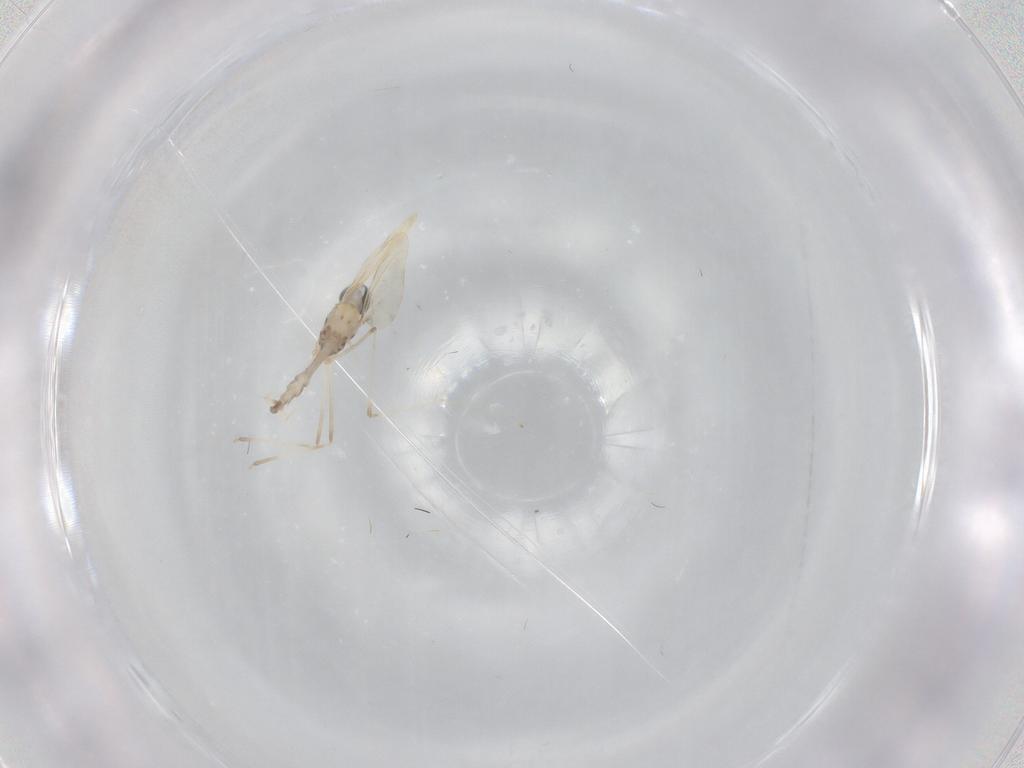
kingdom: Animalia
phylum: Arthropoda
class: Insecta
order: Diptera
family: Cecidomyiidae
